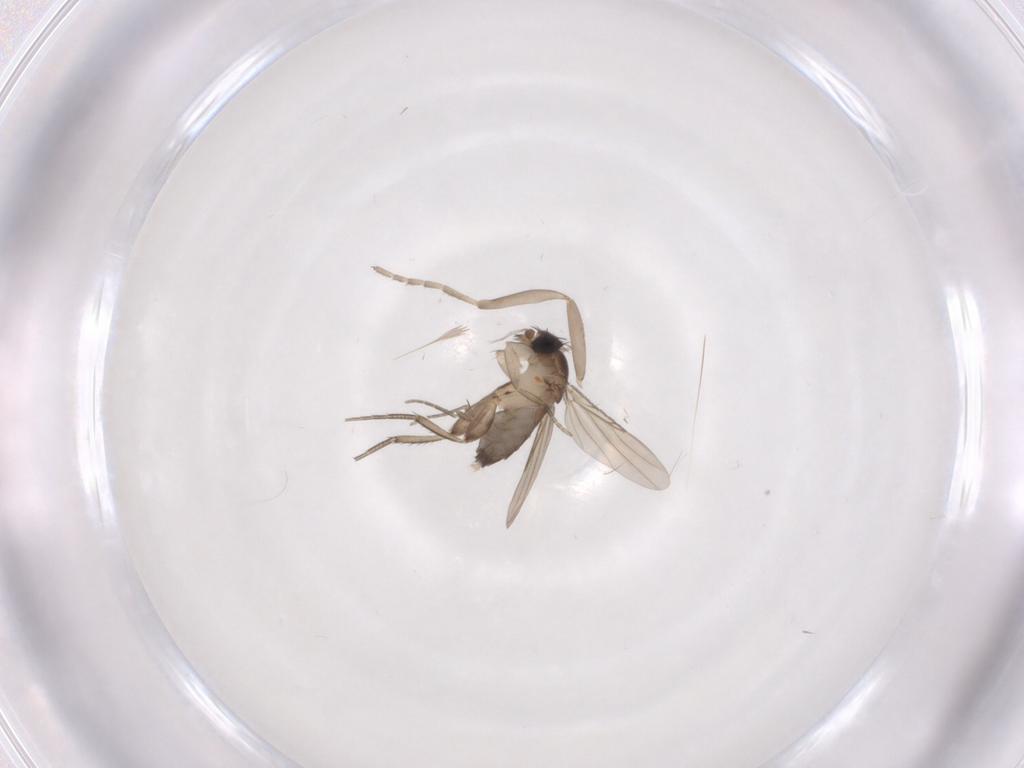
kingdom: Animalia
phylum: Arthropoda
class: Insecta
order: Diptera
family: Phoridae
